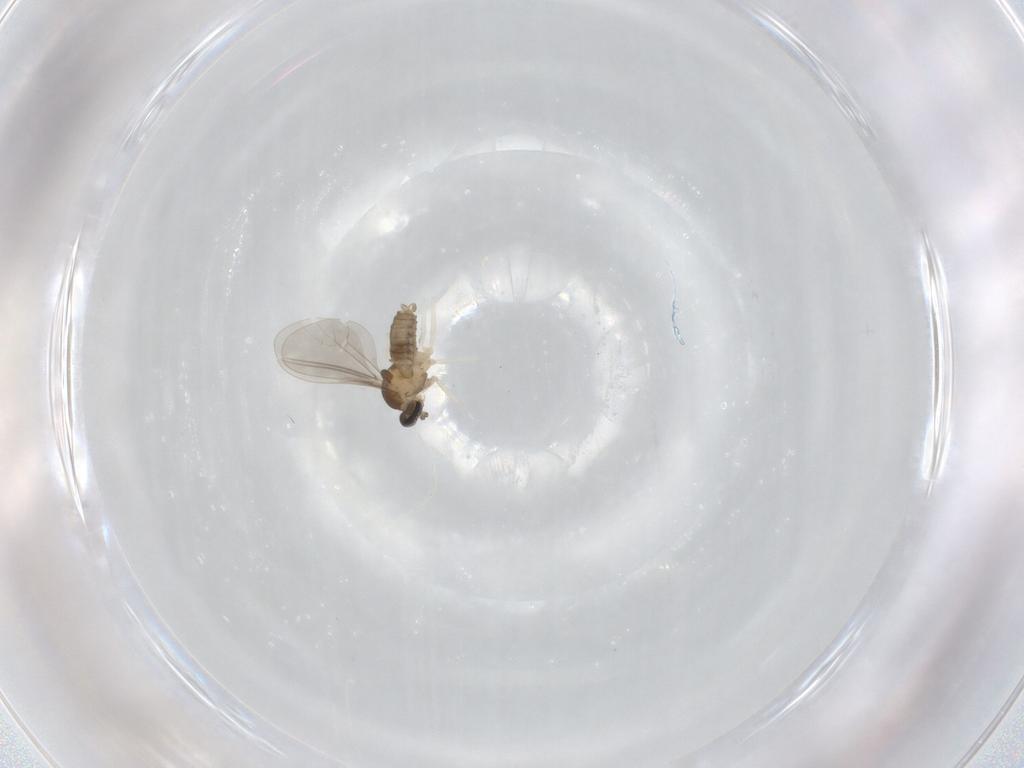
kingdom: Animalia
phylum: Arthropoda
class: Insecta
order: Diptera
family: Cecidomyiidae
